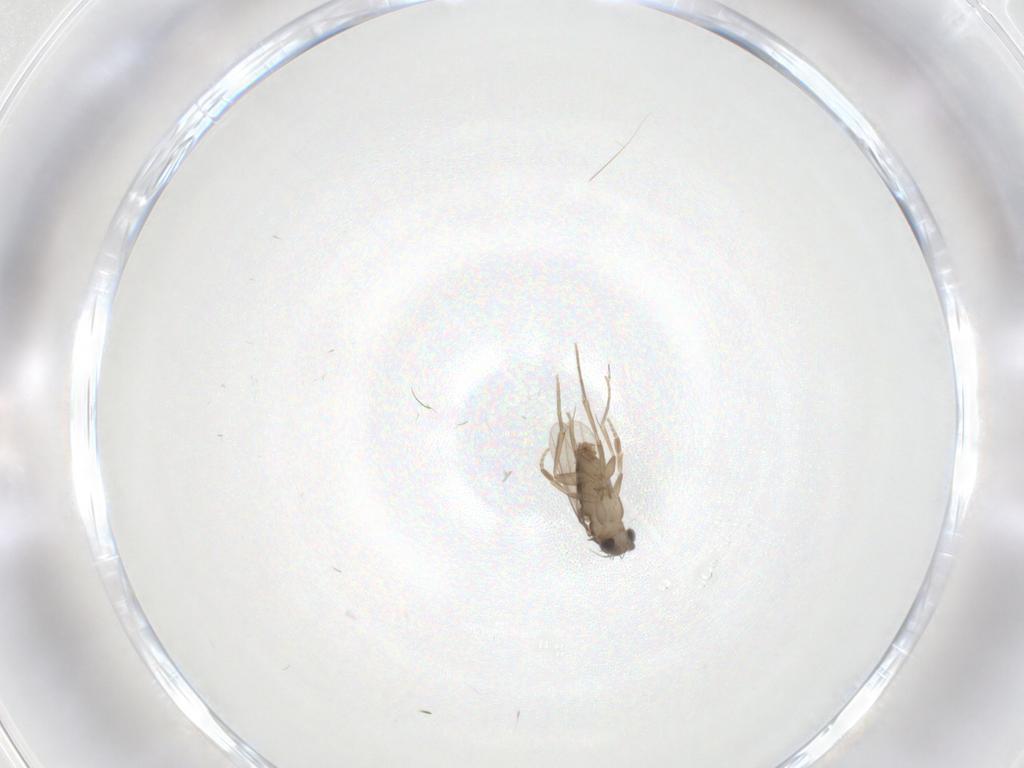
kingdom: Animalia
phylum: Arthropoda
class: Insecta
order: Diptera
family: Phoridae
